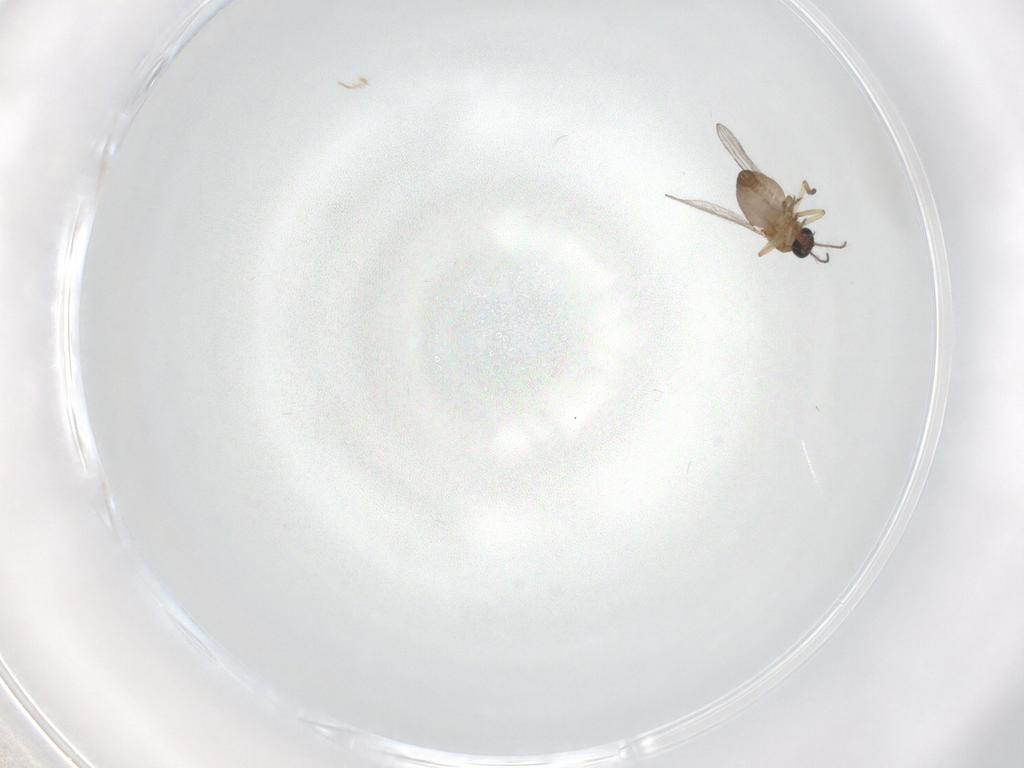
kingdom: Animalia
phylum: Arthropoda
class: Insecta
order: Diptera
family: Chironomidae
